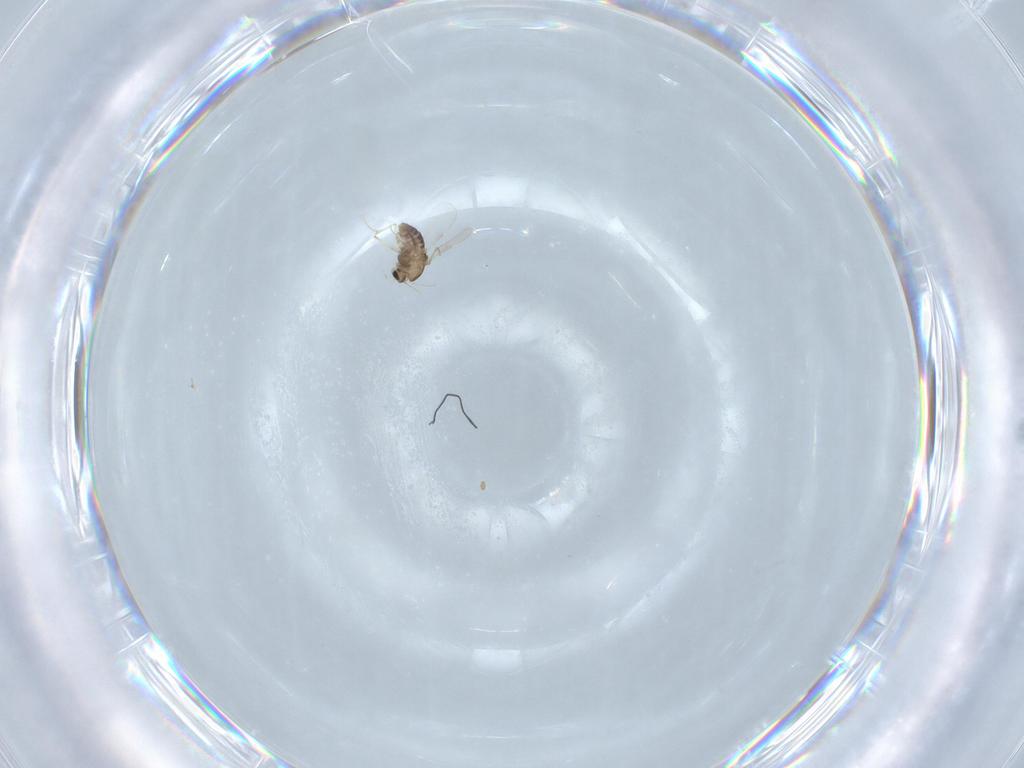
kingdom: Animalia
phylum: Arthropoda
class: Insecta
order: Diptera
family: Chironomidae
